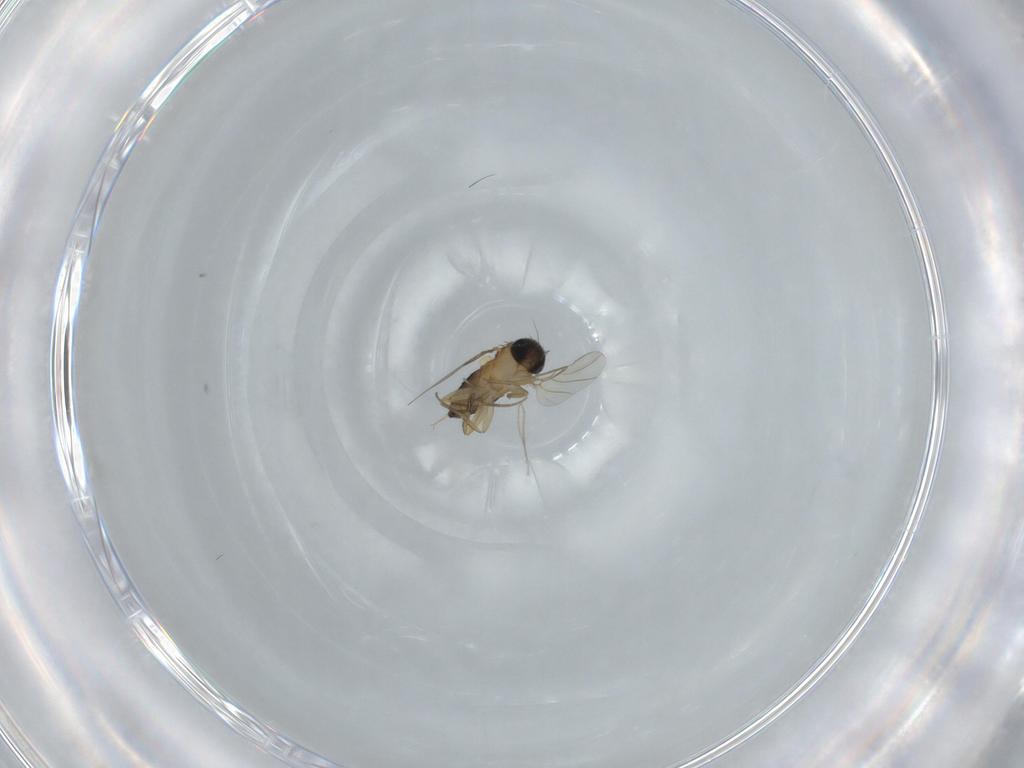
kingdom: Animalia
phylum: Arthropoda
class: Insecta
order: Diptera
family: Phoridae
